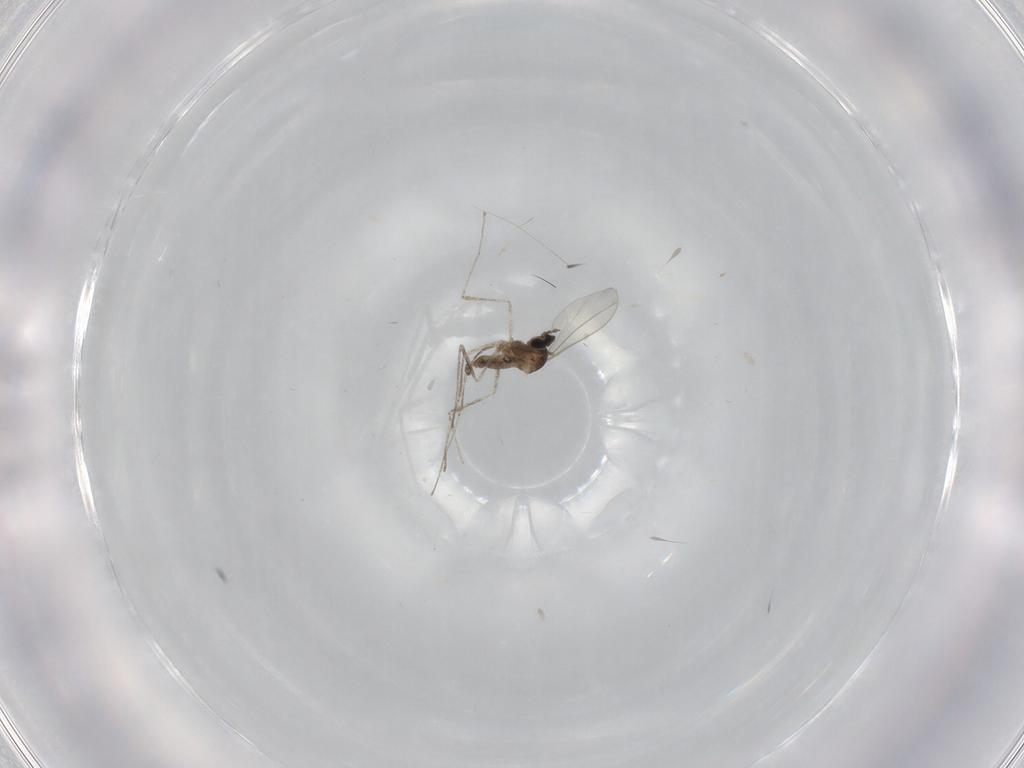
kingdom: Animalia
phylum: Arthropoda
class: Insecta
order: Diptera
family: Cecidomyiidae
